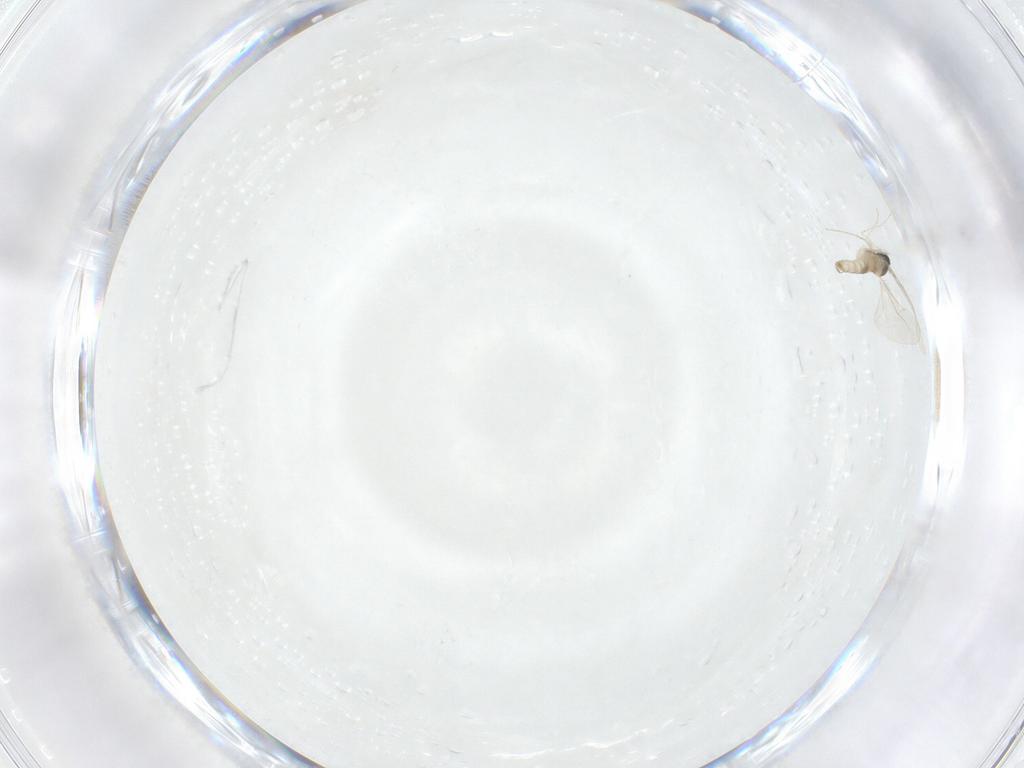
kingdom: Animalia
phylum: Arthropoda
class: Insecta
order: Diptera
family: Cecidomyiidae
